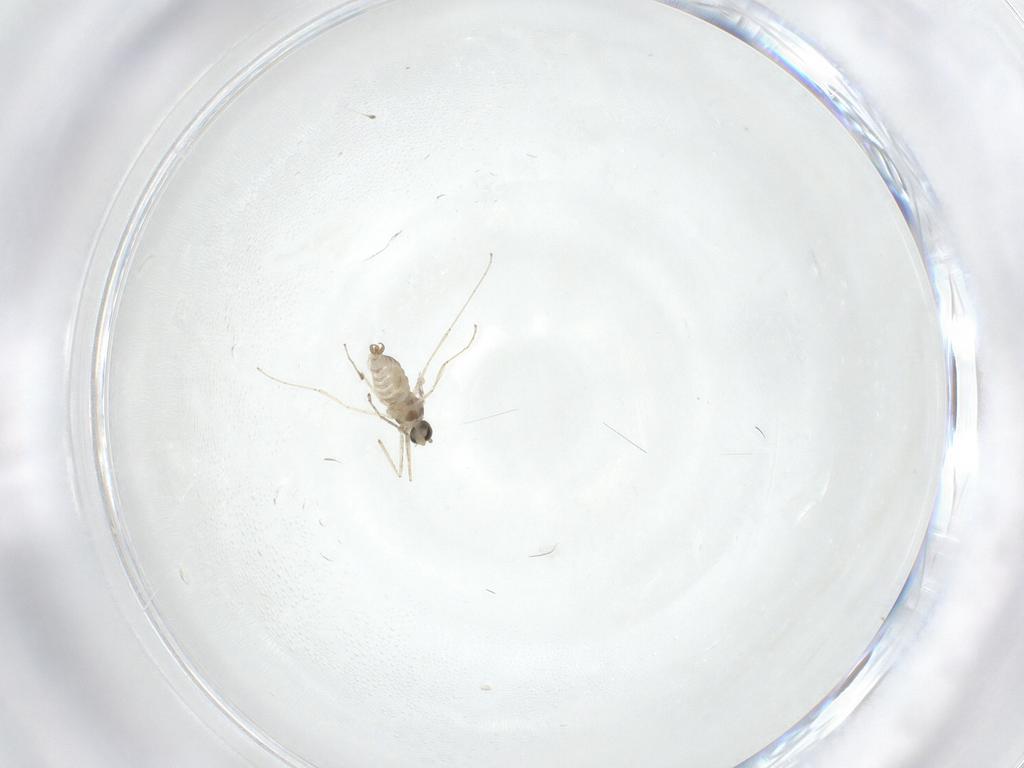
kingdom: Animalia
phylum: Arthropoda
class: Insecta
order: Diptera
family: Cecidomyiidae
